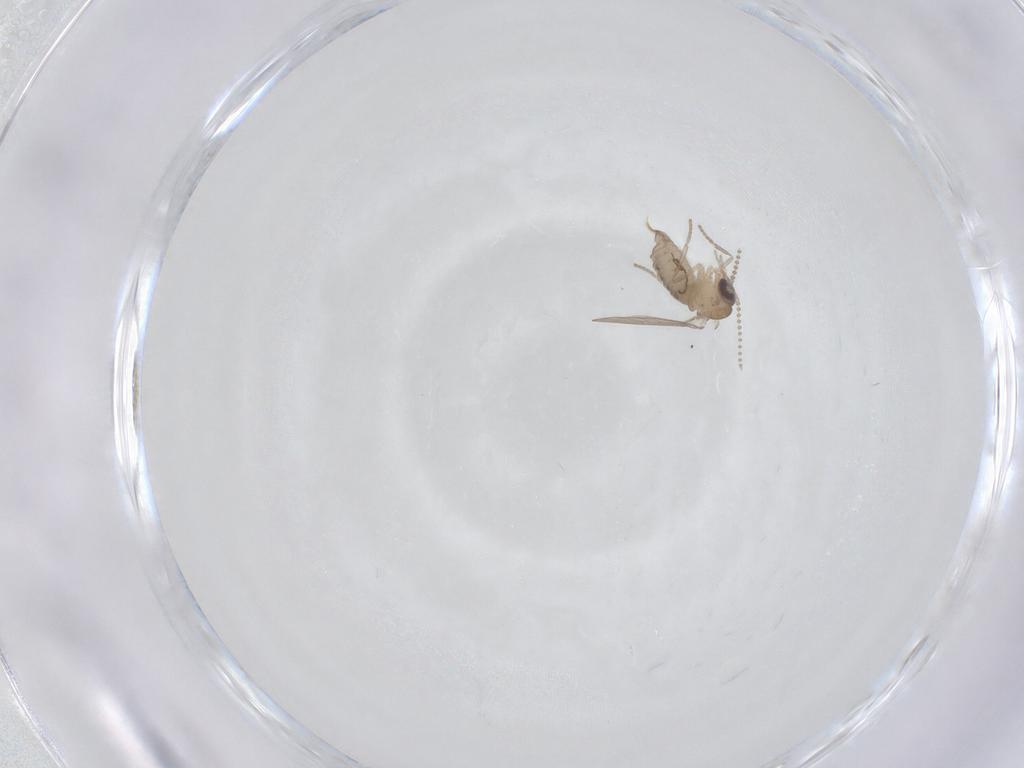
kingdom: Animalia
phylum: Arthropoda
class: Insecta
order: Diptera
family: Psychodidae
